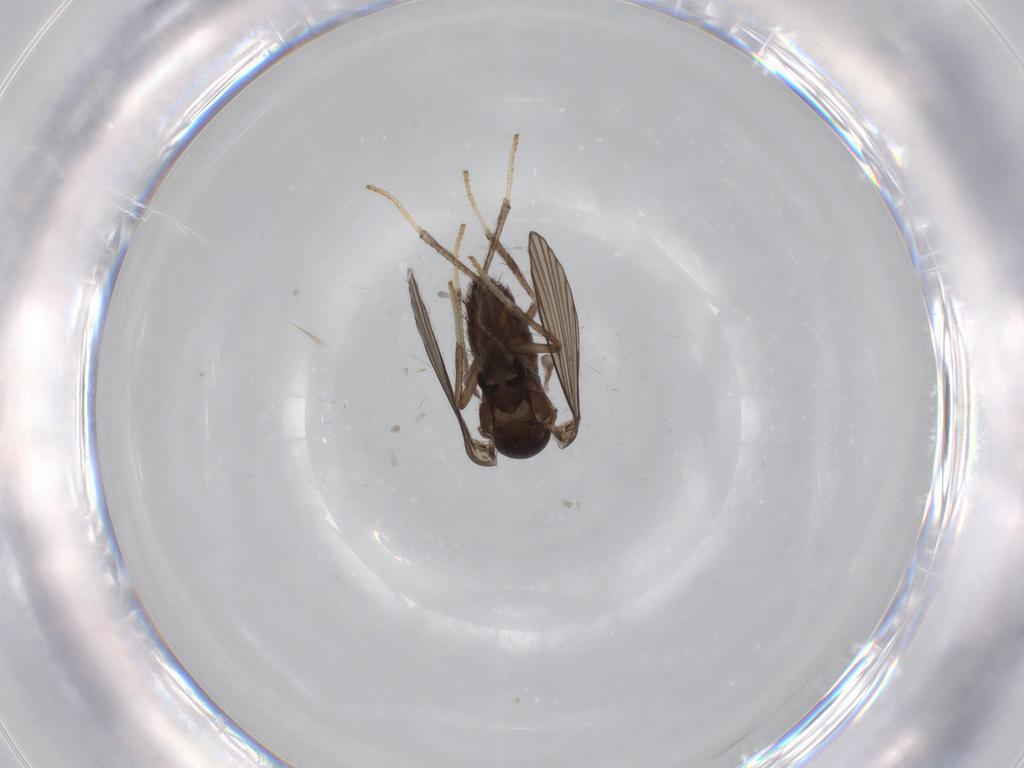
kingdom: Animalia
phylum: Arthropoda
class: Insecta
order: Diptera
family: Psychodidae
